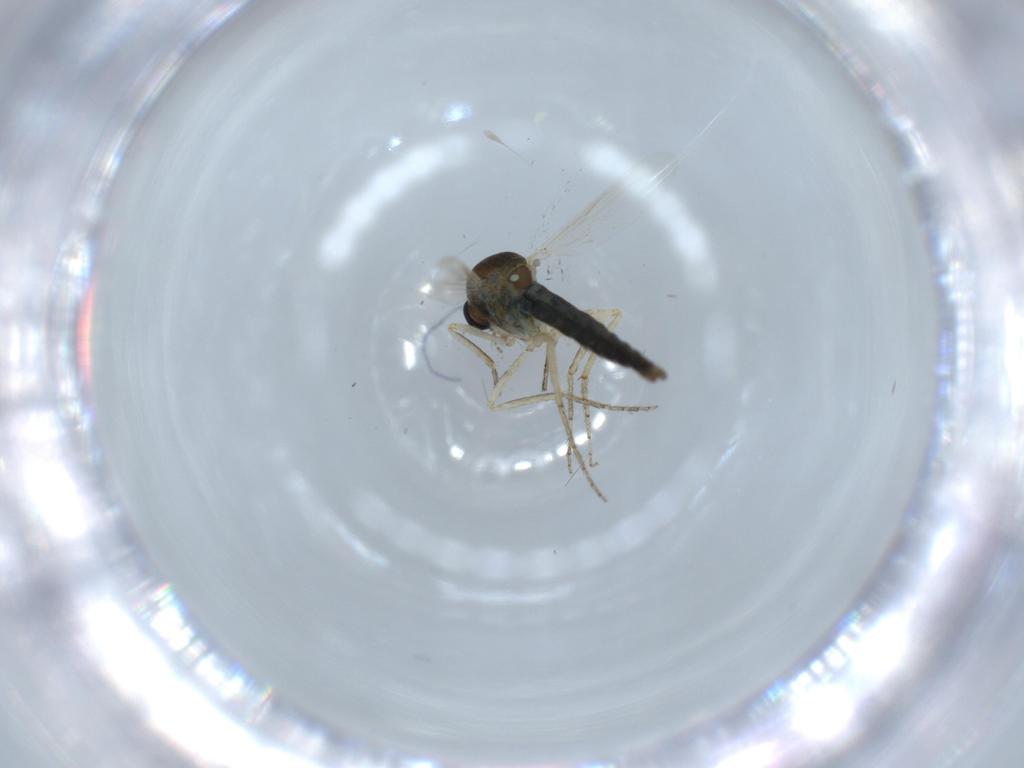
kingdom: Animalia
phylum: Arthropoda
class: Insecta
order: Diptera
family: Ceratopogonidae
